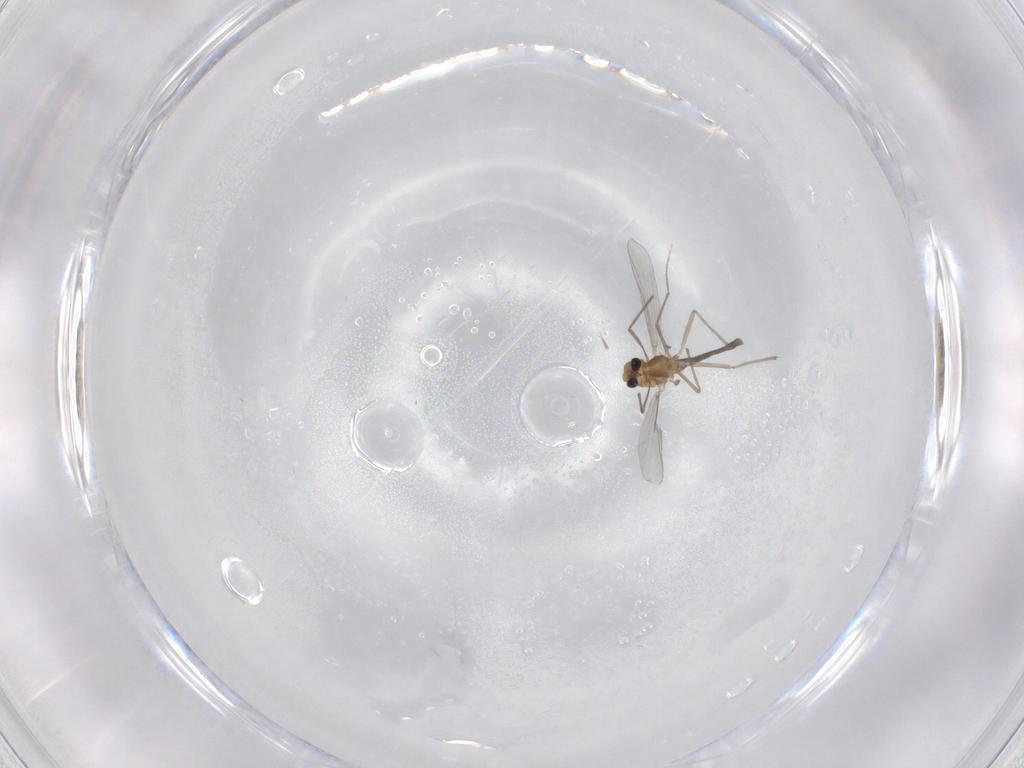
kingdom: Animalia
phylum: Arthropoda
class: Insecta
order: Diptera
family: Chironomidae
